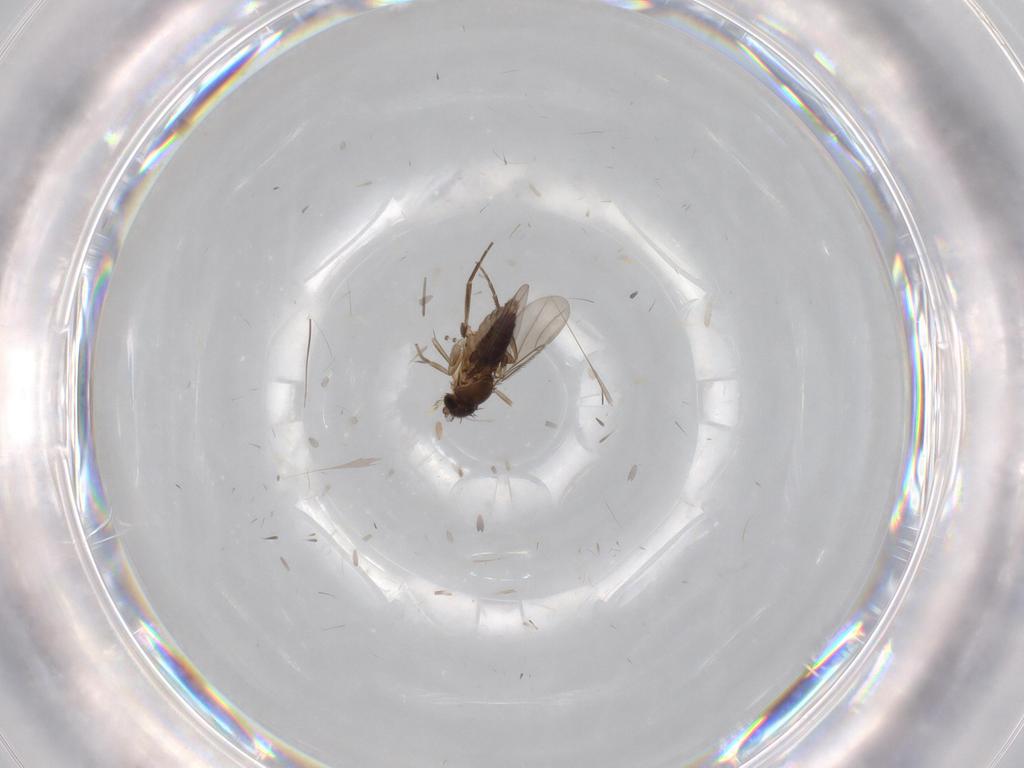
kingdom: Animalia
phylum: Arthropoda
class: Insecta
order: Diptera
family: Phoridae
